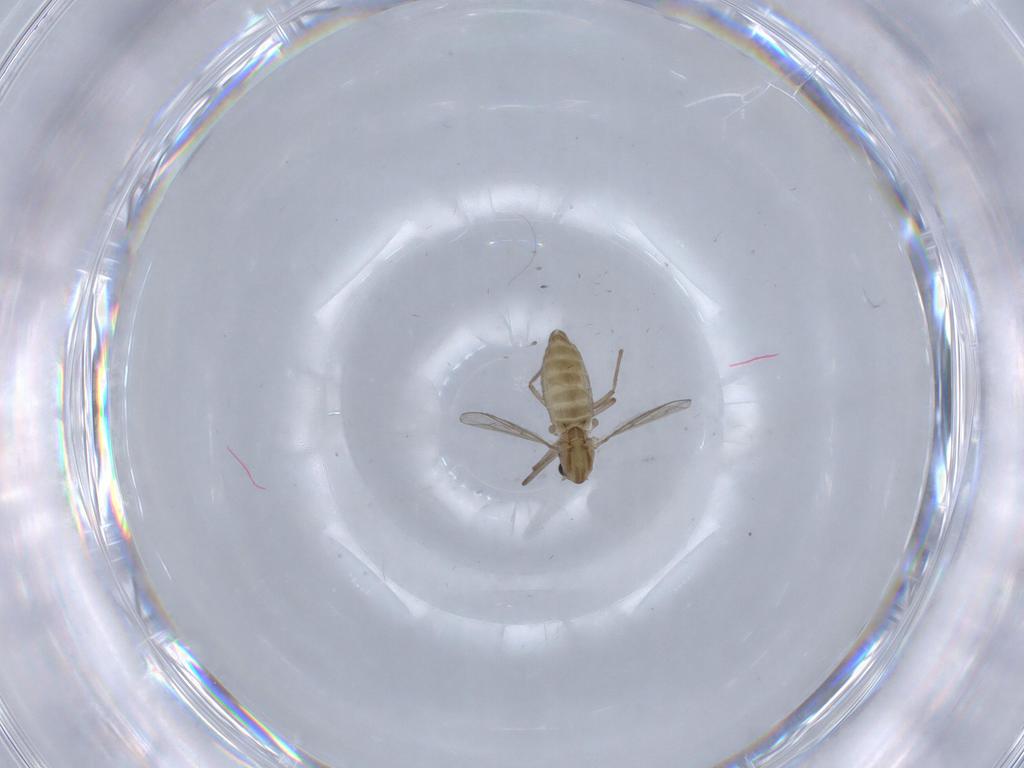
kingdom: Animalia
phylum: Arthropoda
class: Insecta
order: Diptera
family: Chironomidae
